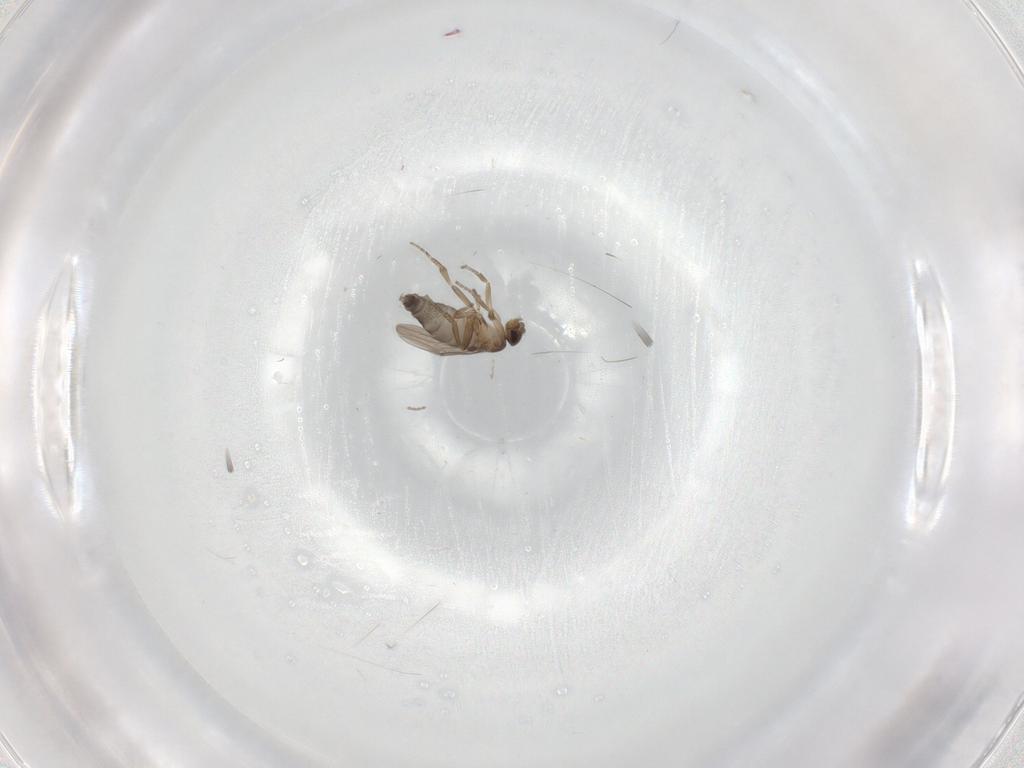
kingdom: Animalia
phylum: Arthropoda
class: Insecta
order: Diptera
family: Phoridae
